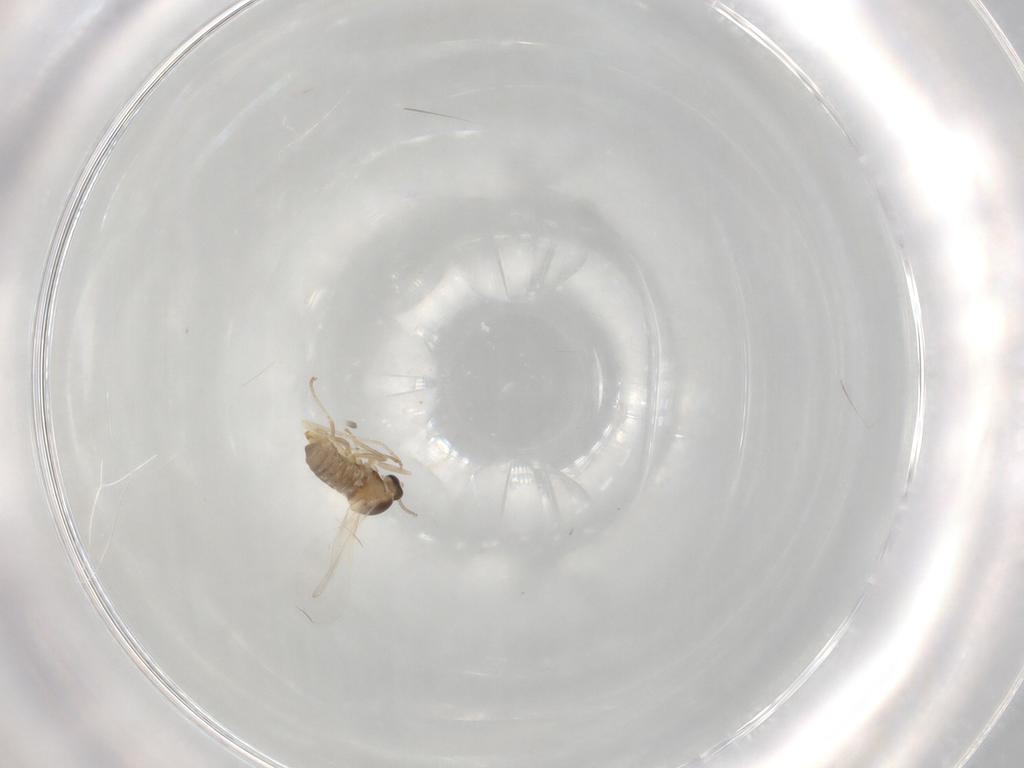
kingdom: Animalia
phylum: Arthropoda
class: Insecta
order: Diptera
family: Cecidomyiidae
